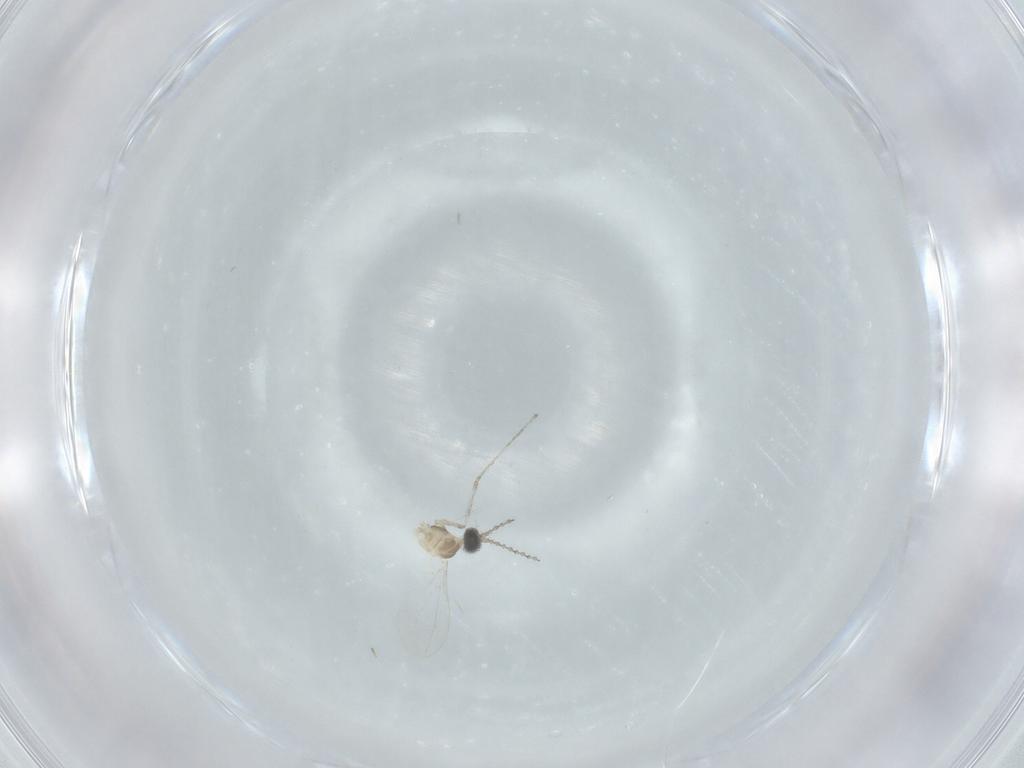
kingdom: Animalia
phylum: Arthropoda
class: Insecta
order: Diptera
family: Cecidomyiidae
